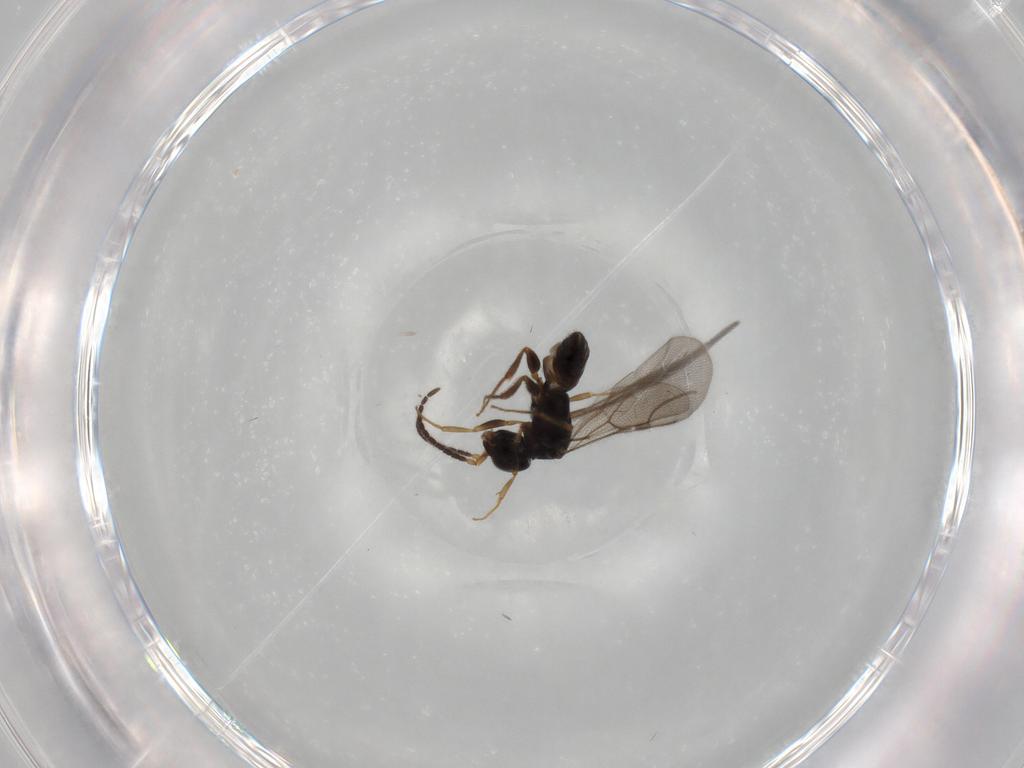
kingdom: Animalia
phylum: Arthropoda
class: Insecta
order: Hymenoptera
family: Bethylidae
